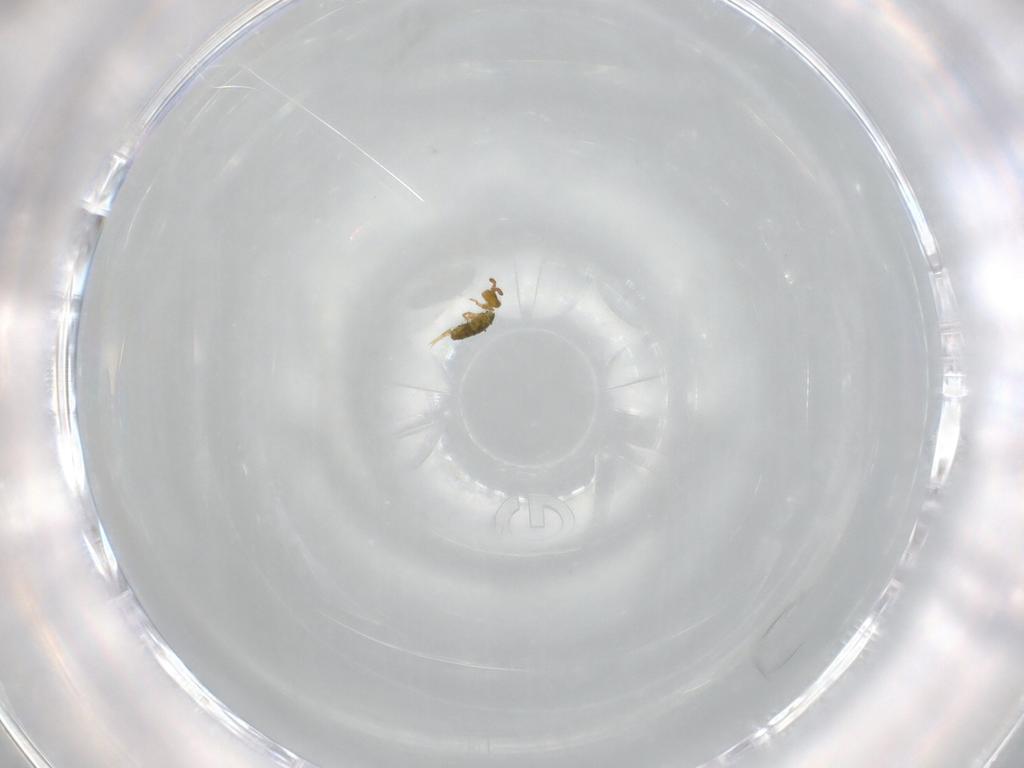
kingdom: Animalia
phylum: Arthropoda
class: Collembola
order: Entomobryomorpha
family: Isotomidae
